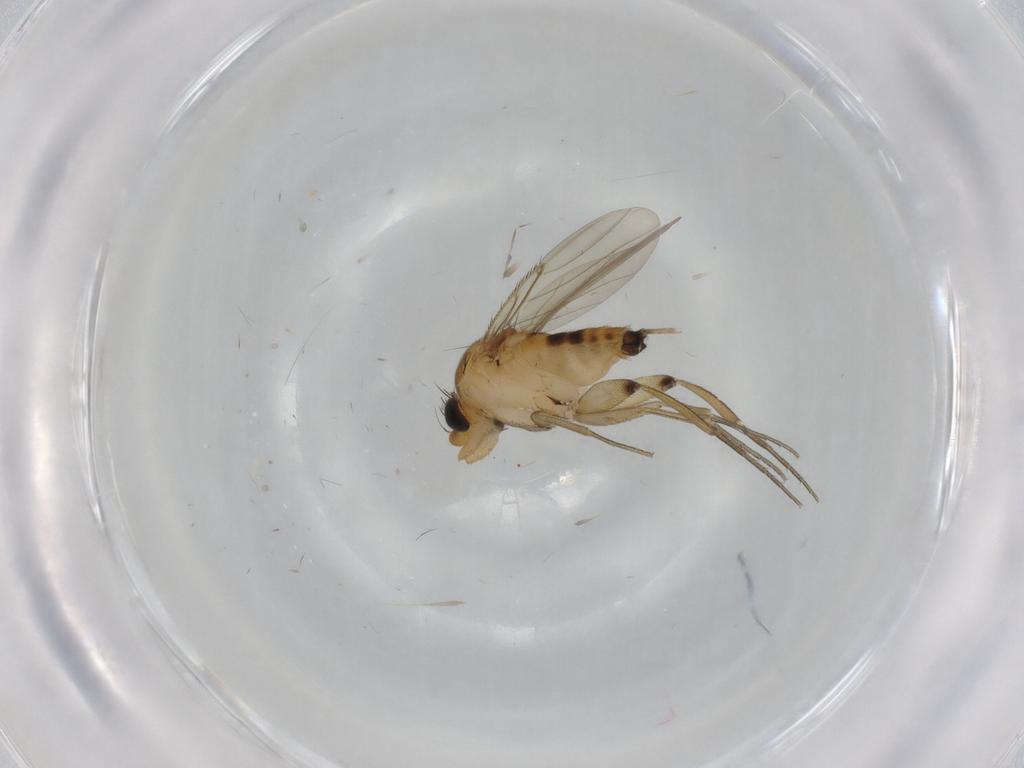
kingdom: Animalia
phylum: Arthropoda
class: Insecta
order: Diptera
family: Phoridae
